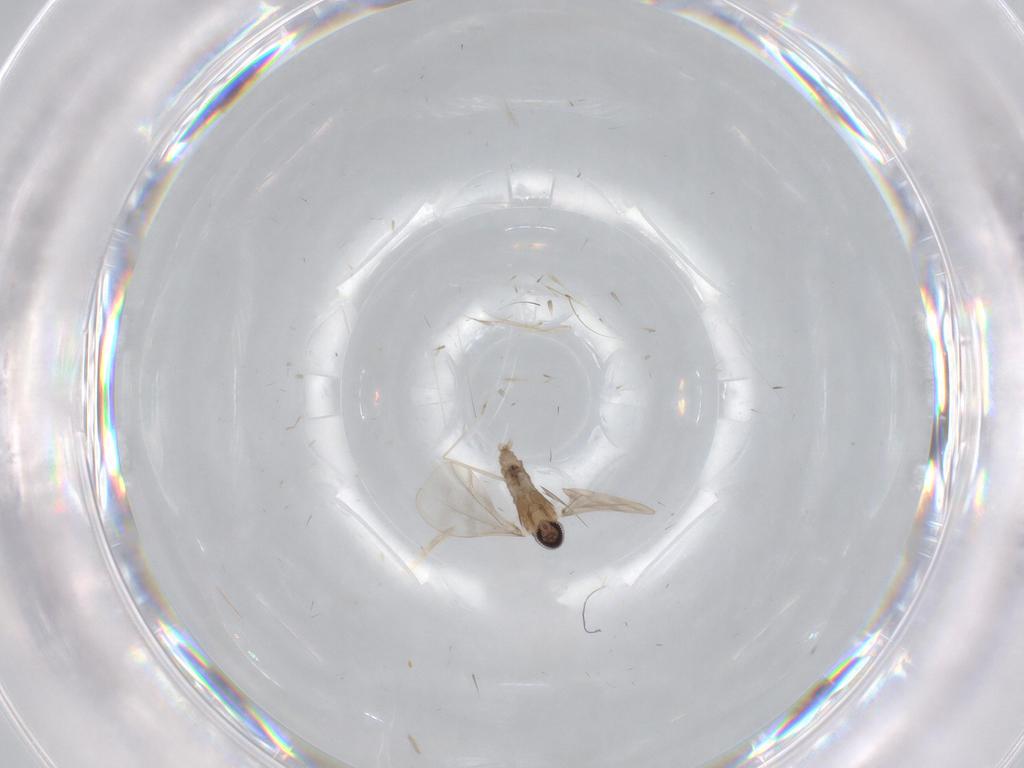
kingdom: Animalia
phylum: Arthropoda
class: Insecta
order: Diptera
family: Cecidomyiidae
